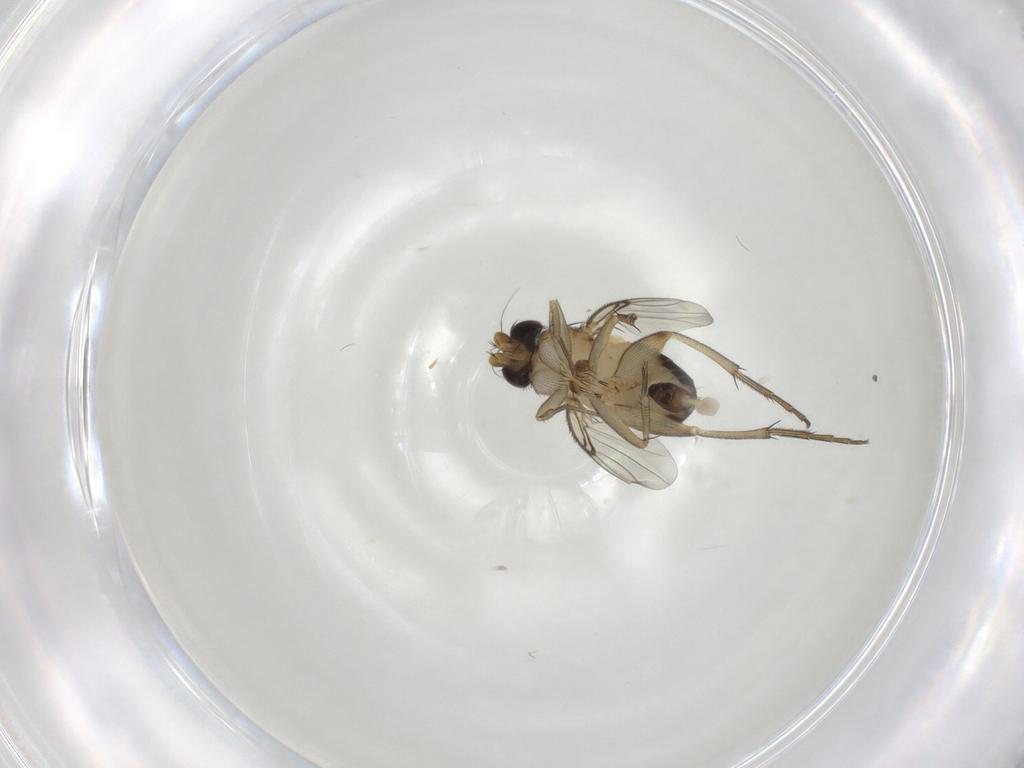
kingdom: Animalia
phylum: Arthropoda
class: Insecta
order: Diptera
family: Phoridae
